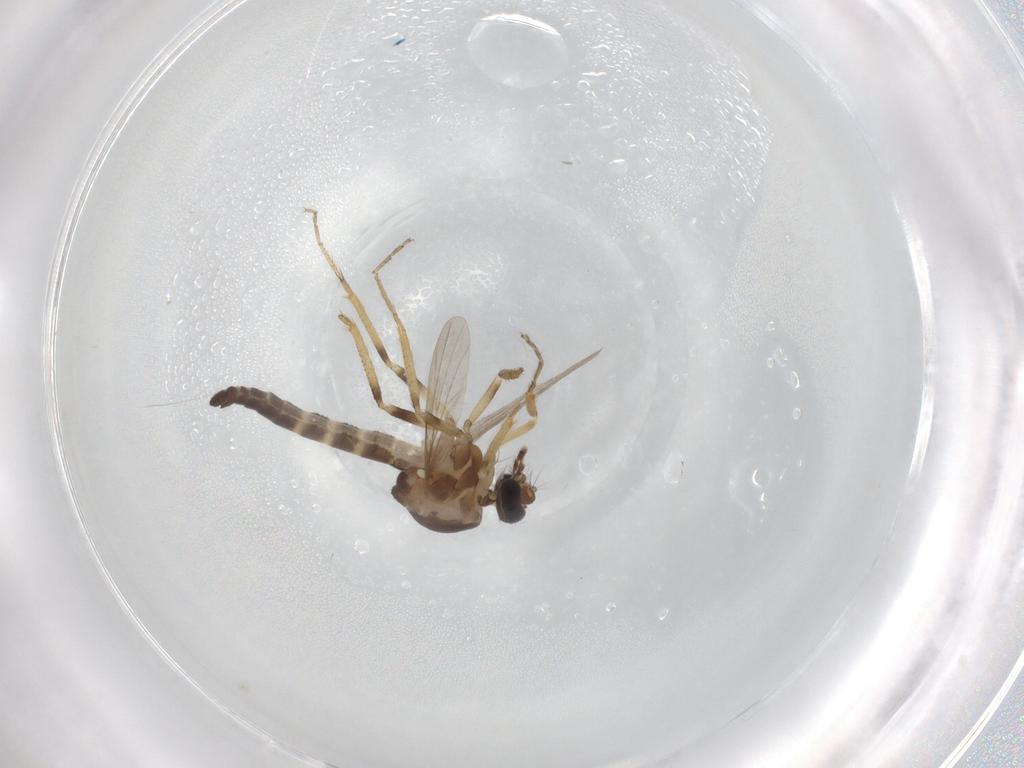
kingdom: Animalia
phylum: Arthropoda
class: Insecta
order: Diptera
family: Ceratopogonidae
